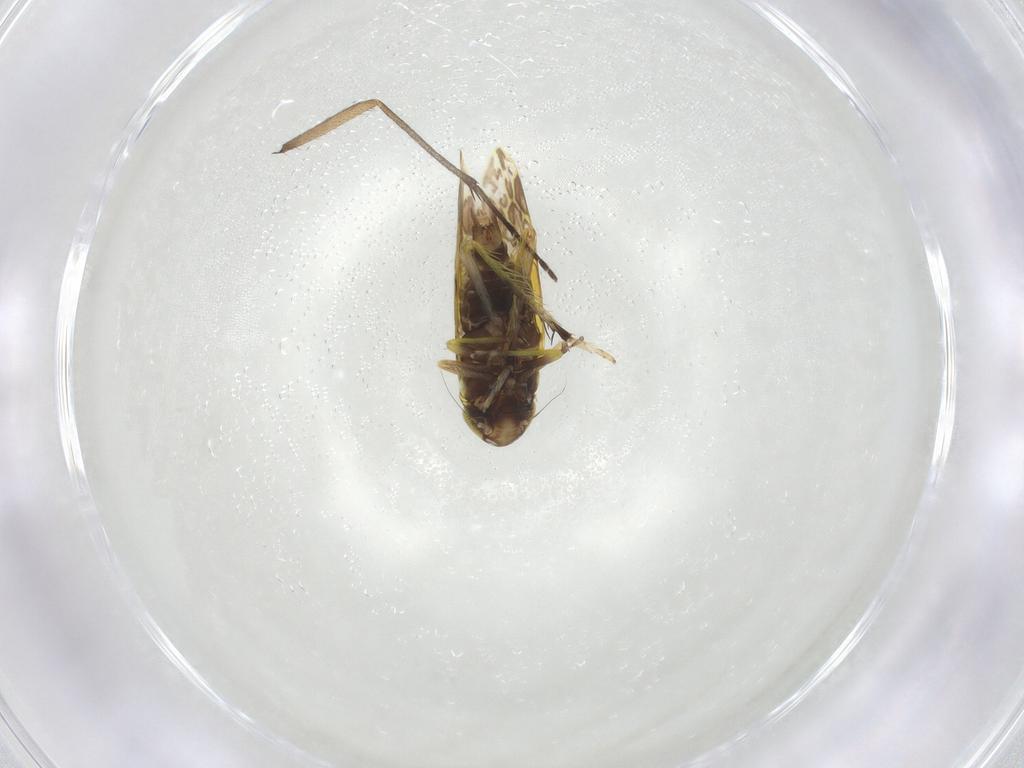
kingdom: Animalia
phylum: Arthropoda
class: Insecta
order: Hemiptera
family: Cicadellidae
